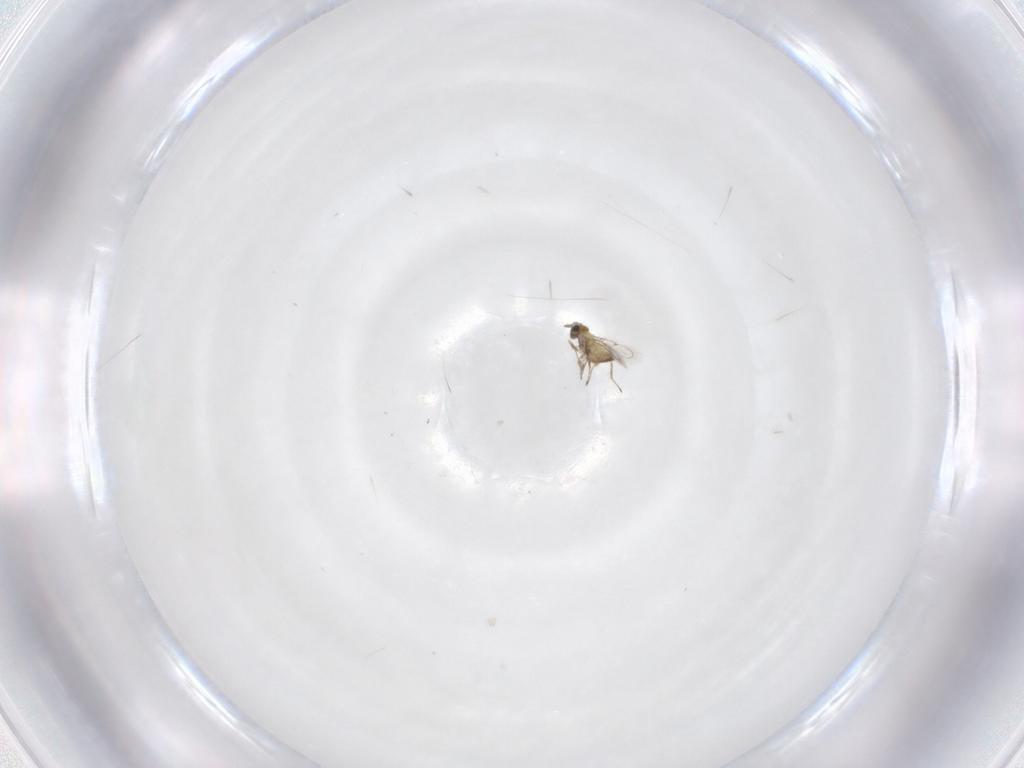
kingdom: Animalia
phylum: Arthropoda
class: Insecta
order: Hymenoptera
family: Trichogrammatidae
